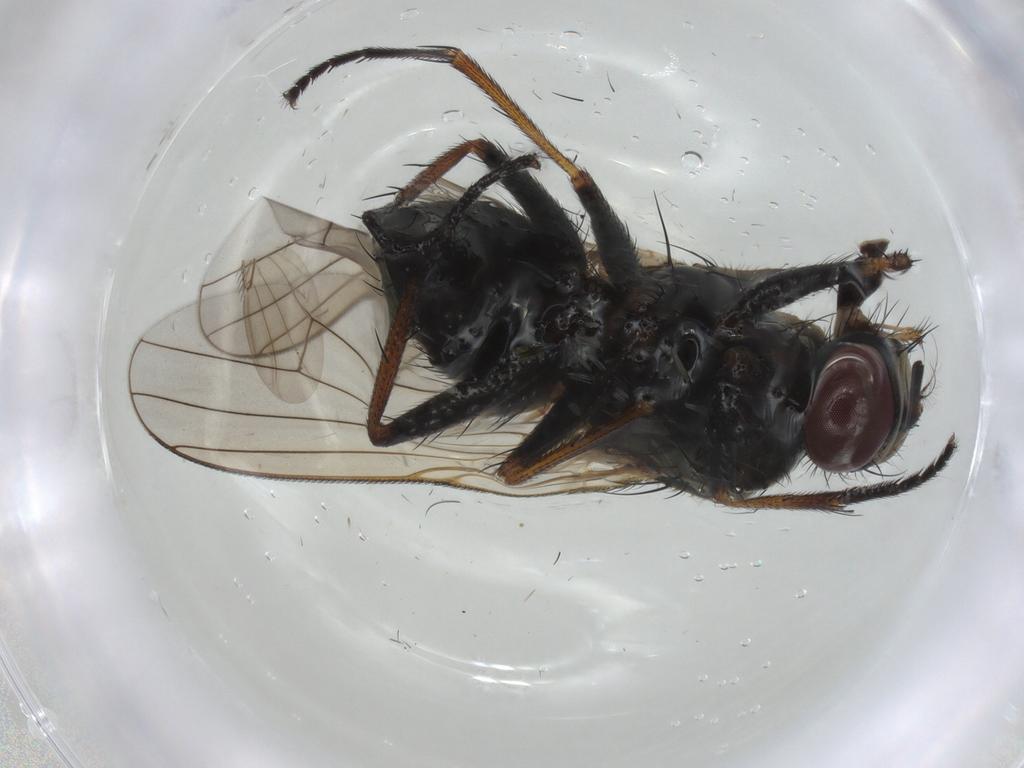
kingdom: Animalia
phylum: Arthropoda
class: Insecta
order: Diptera
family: Muscidae
